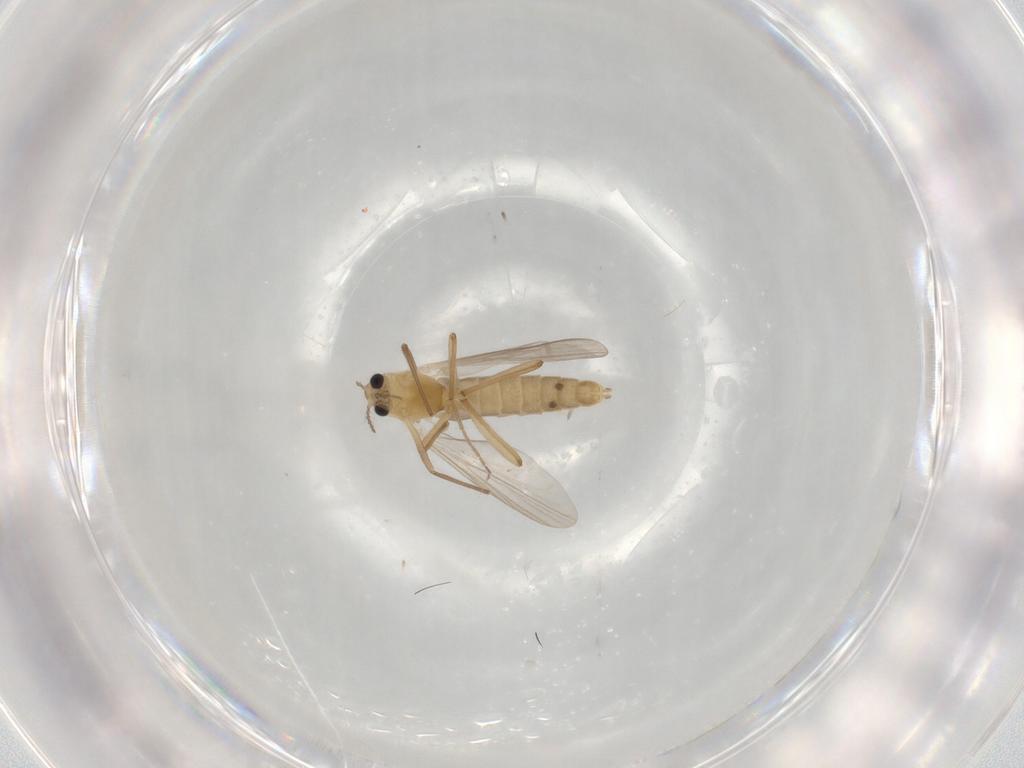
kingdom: Animalia
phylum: Arthropoda
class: Insecta
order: Diptera
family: Chironomidae
